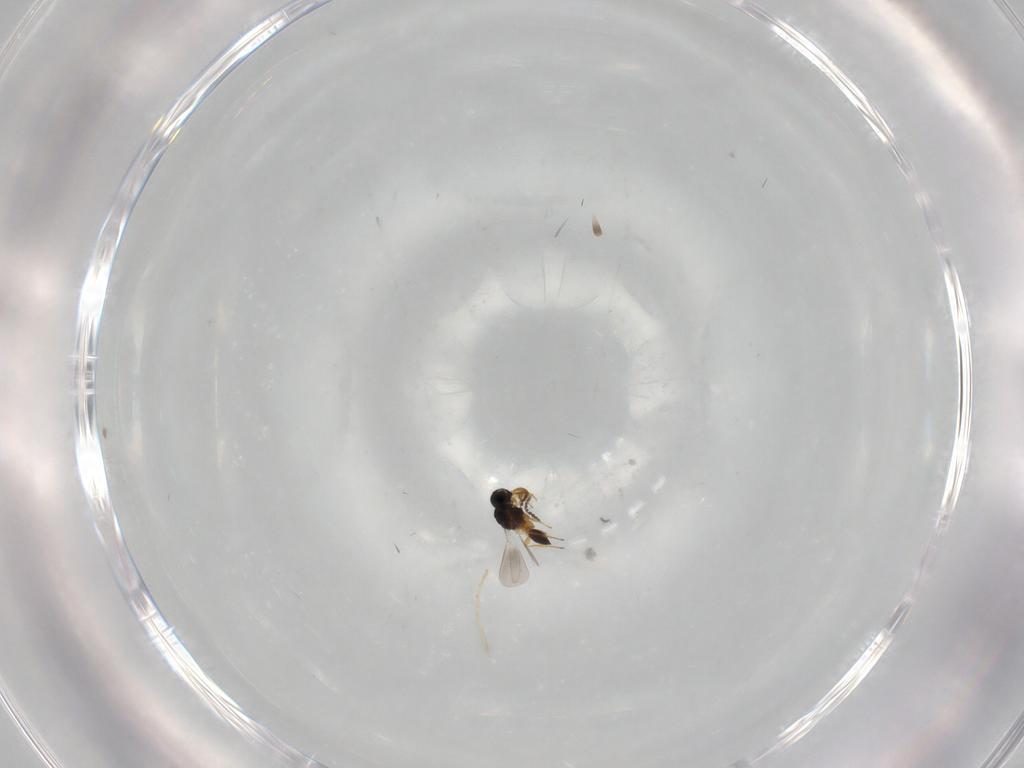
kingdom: Animalia
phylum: Arthropoda
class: Insecta
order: Hymenoptera
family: Platygastridae
